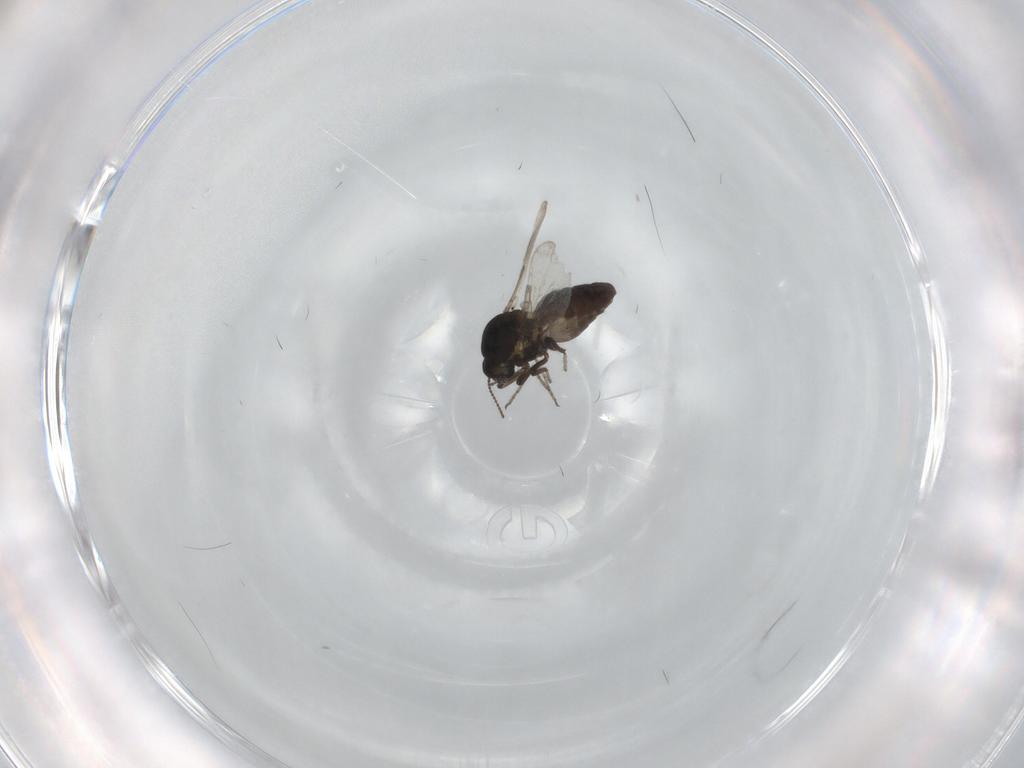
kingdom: Animalia
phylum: Arthropoda
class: Insecta
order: Diptera
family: Ceratopogonidae
